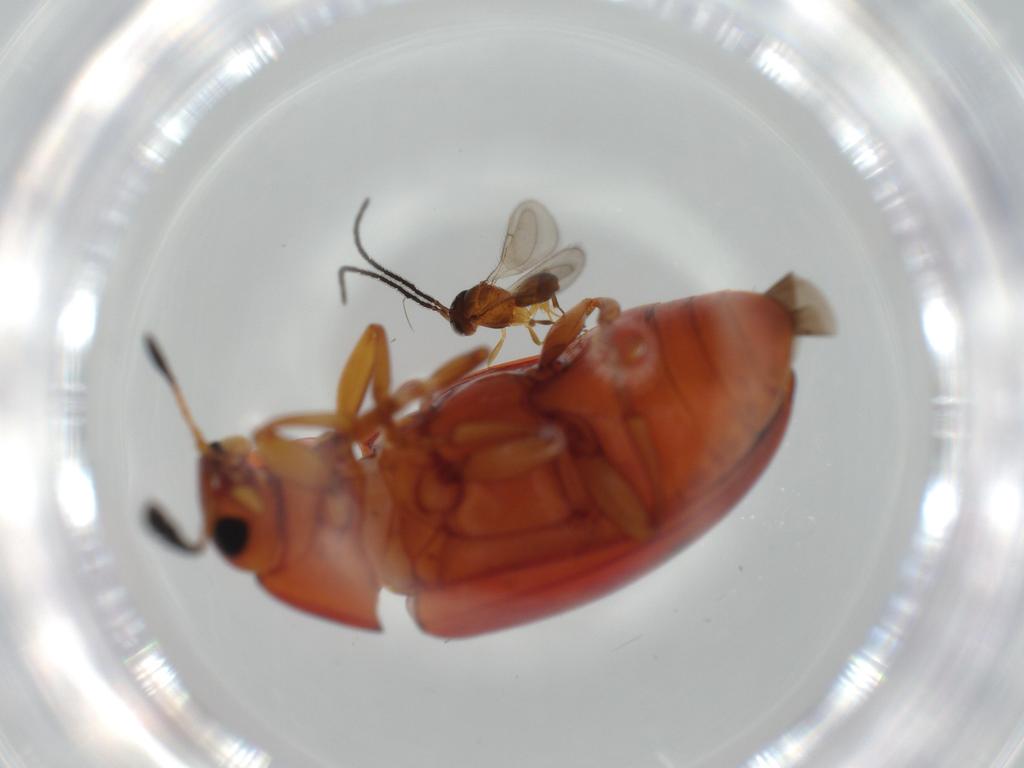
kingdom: Animalia
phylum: Arthropoda
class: Insecta
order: Coleoptera
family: Erotylidae
